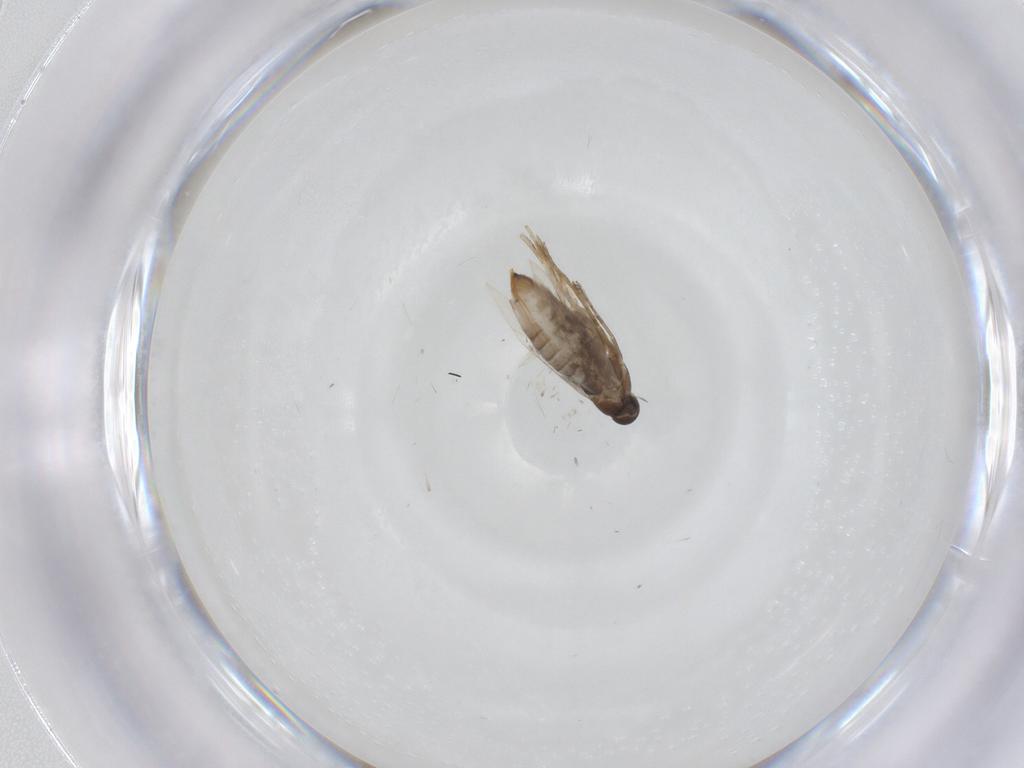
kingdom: Animalia
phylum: Arthropoda
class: Insecta
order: Lepidoptera
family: Heliozelidae
